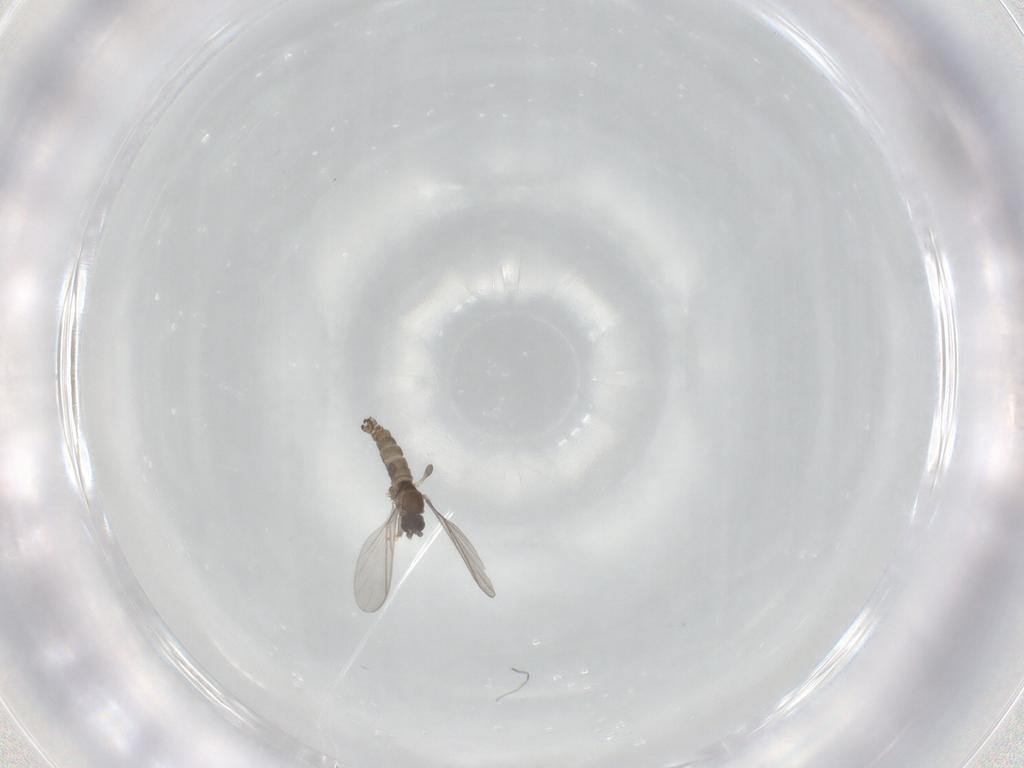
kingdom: Animalia
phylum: Arthropoda
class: Insecta
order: Diptera
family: Sciaridae
